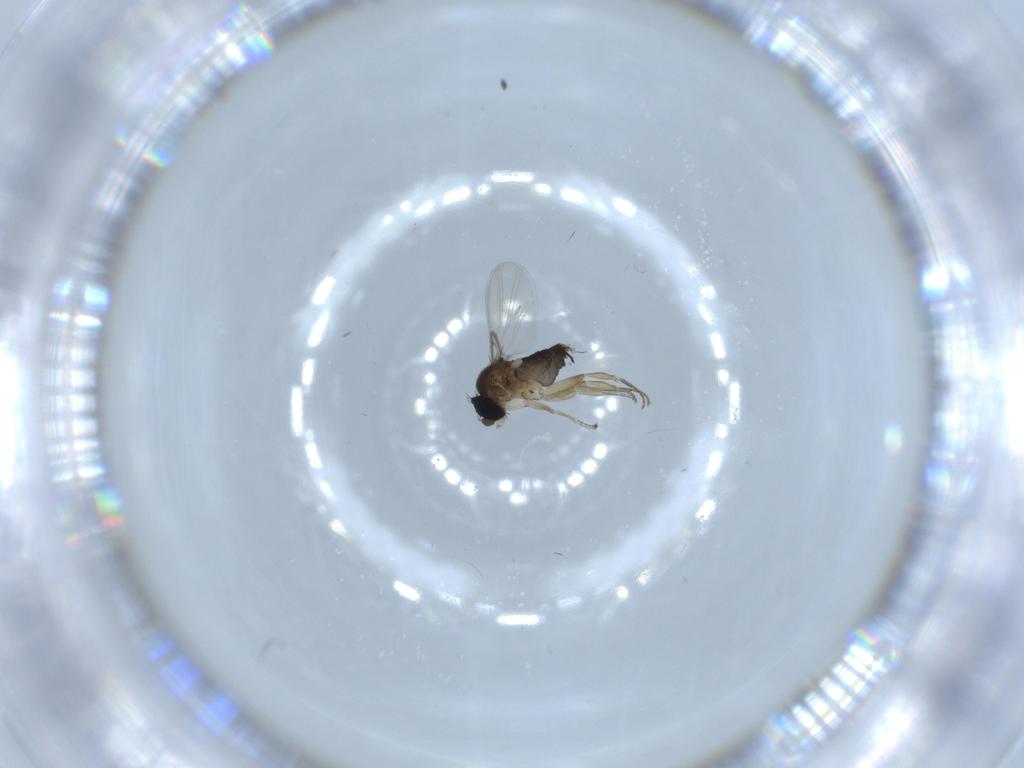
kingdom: Animalia
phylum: Arthropoda
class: Insecta
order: Diptera
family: Phoridae
